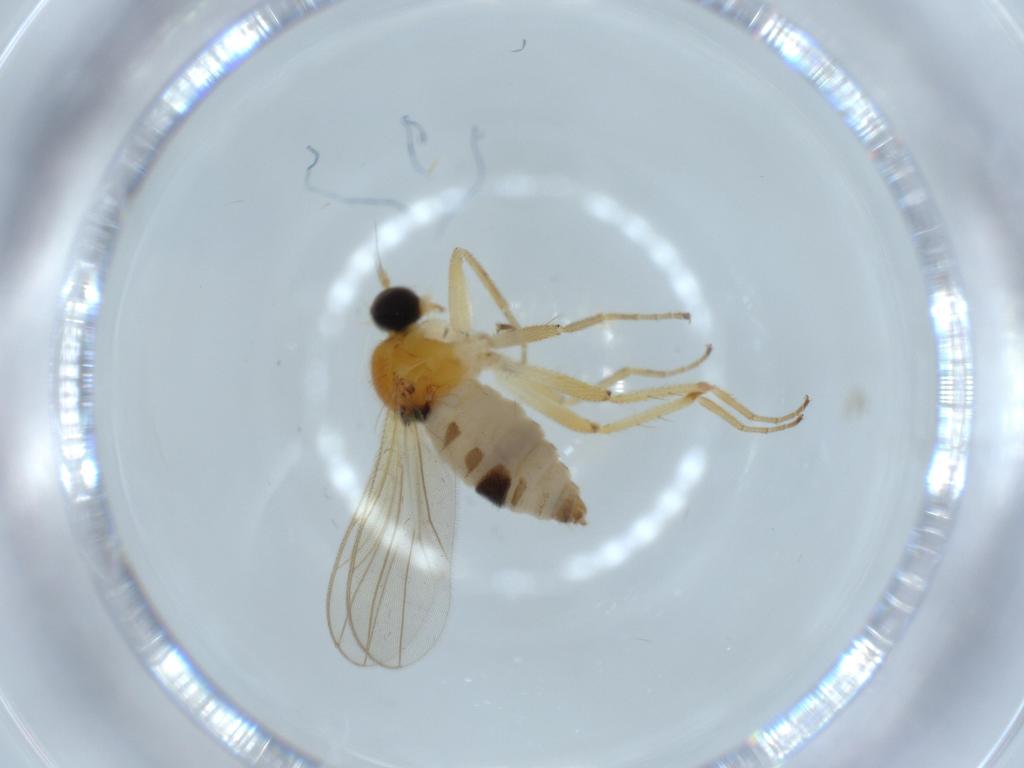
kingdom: Animalia
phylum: Arthropoda
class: Insecta
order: Diptera
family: Hybotidae
